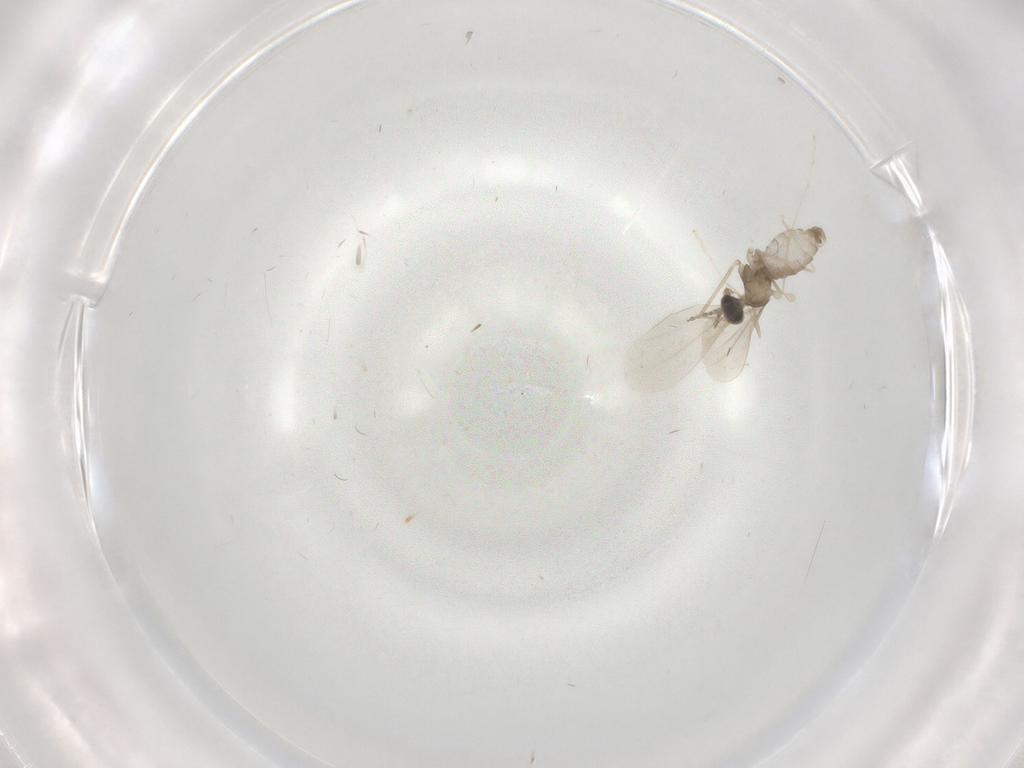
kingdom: Animalia
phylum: Arthropoda
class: Insecta
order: Diptera
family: Cecidomyiidae
